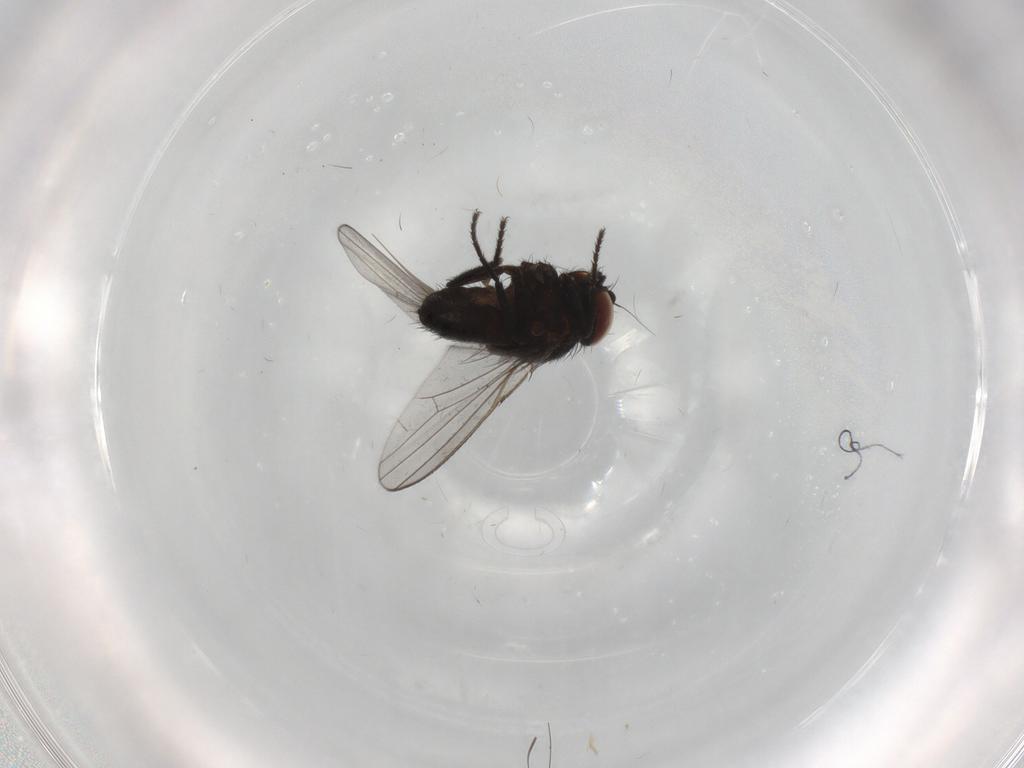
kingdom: Animalia
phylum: Arthropoda
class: Insecta
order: Diptera
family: Milichiidae
